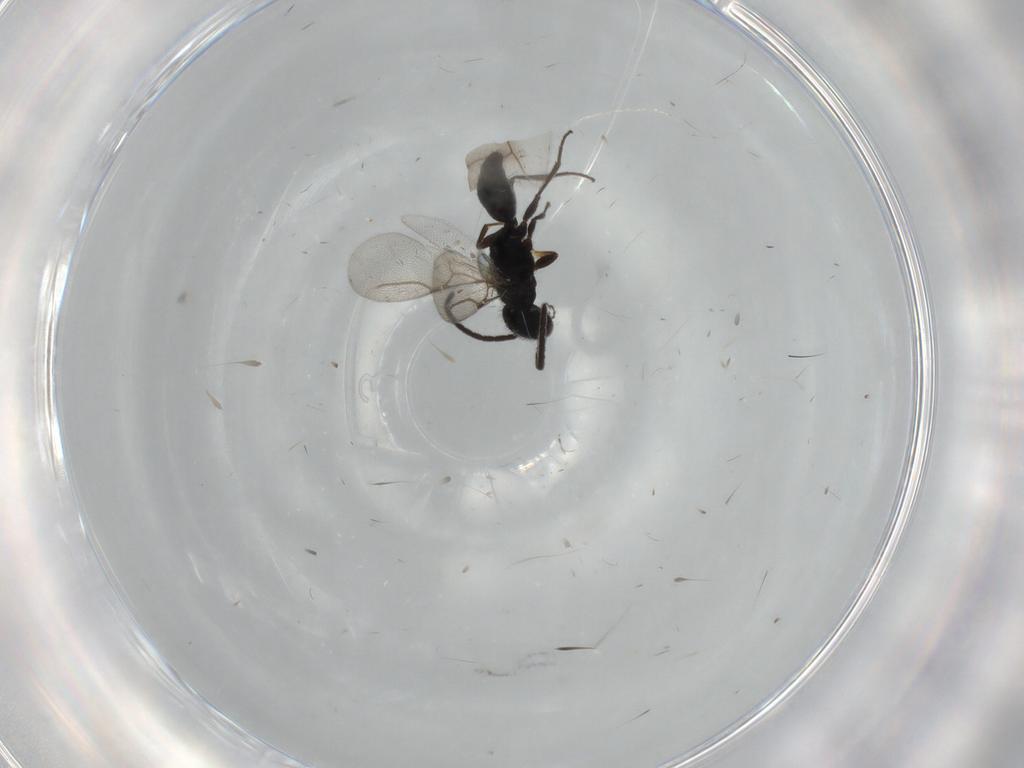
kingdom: Animalia
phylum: Arthropoda
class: Insecta
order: Hymenoptera
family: Bethylidae
